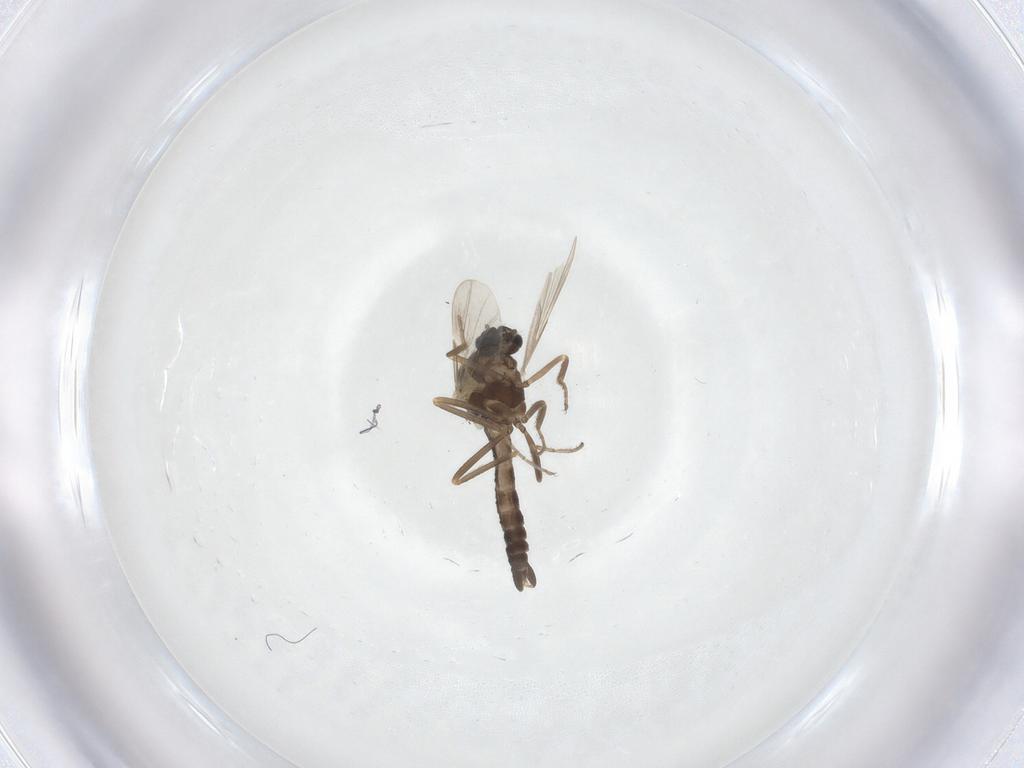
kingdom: Animalia
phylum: Arthropoda
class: Insecta
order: Diptera
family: Ceratopogonidae
